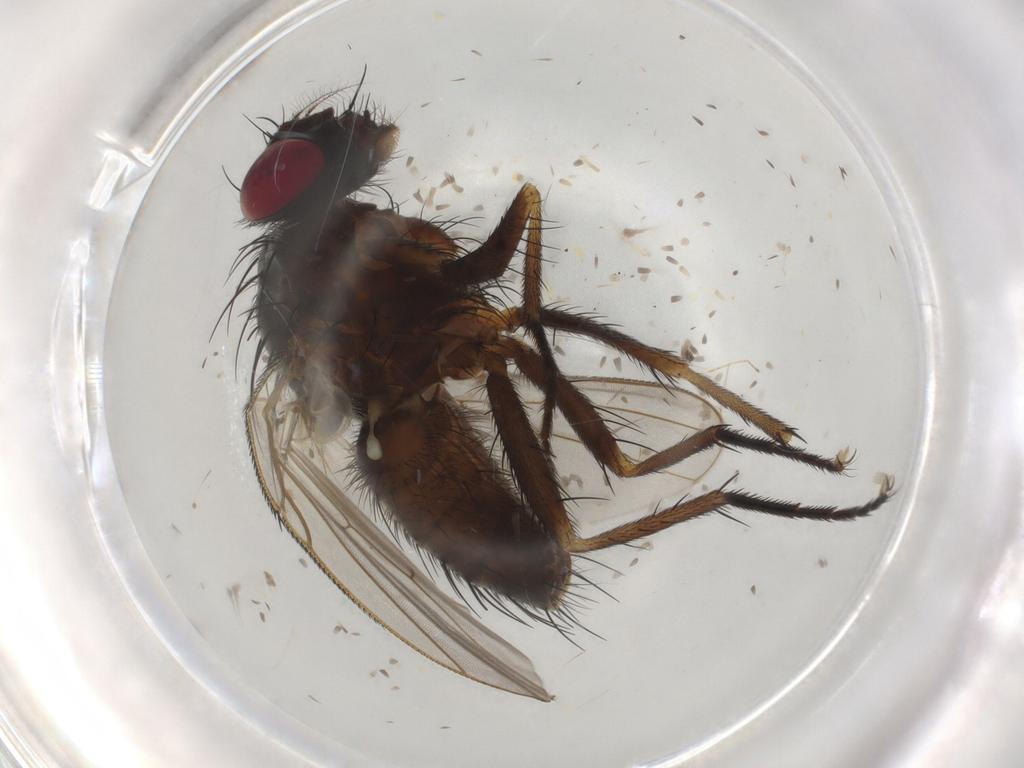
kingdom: Animalia
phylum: Arthropoda
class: Insecta
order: Diptera
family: Muscidae
